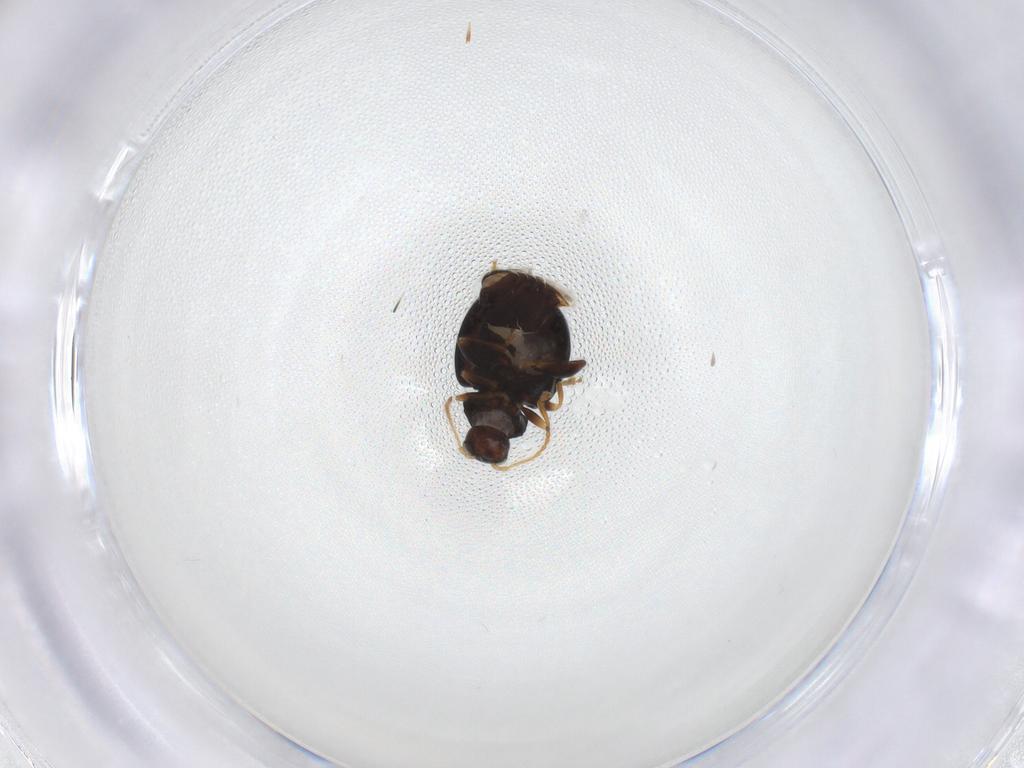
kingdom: Animalia
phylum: Arthropoda
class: Insecta
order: Coleoptera
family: Chrysomelidae
